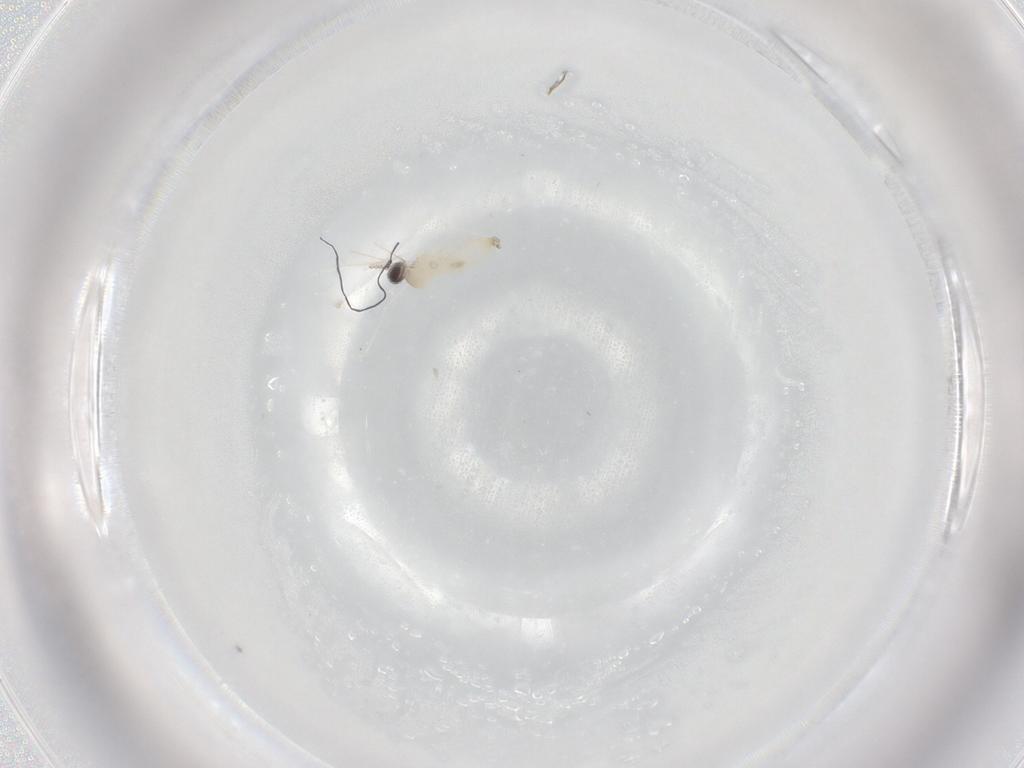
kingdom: Animalia
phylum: Arthropoda
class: Insecta
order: Diptera
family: Cecidomyiidae
